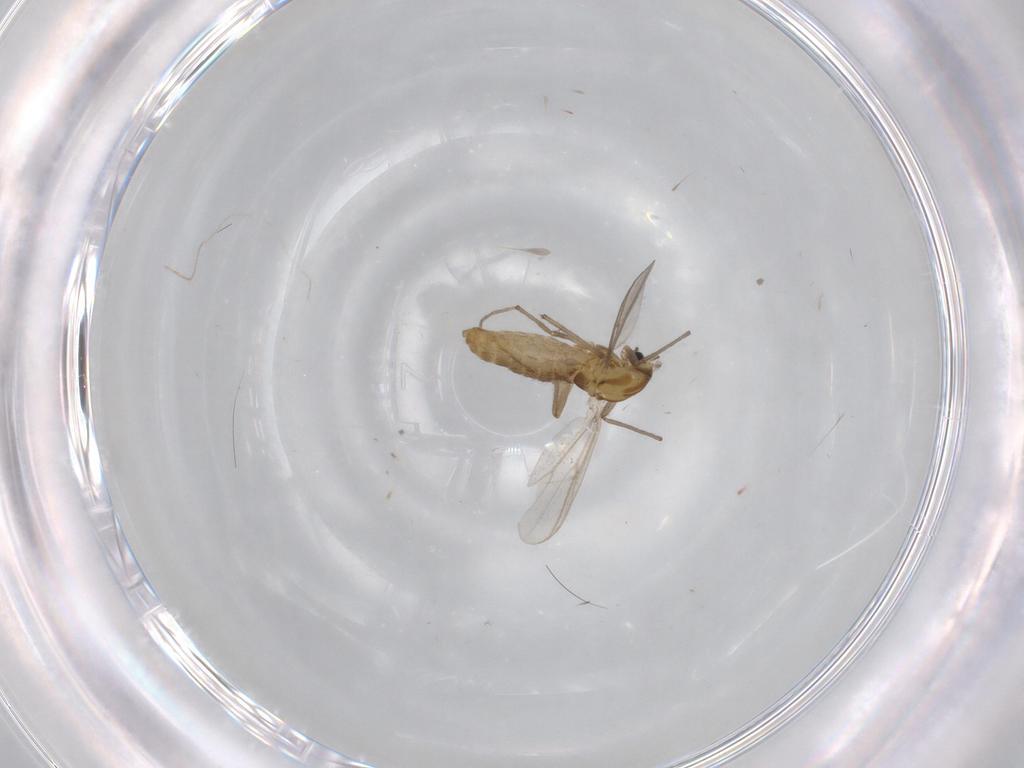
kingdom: Animalia
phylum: Arthropoda
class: Insecta
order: Diptera
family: Chironomidae
